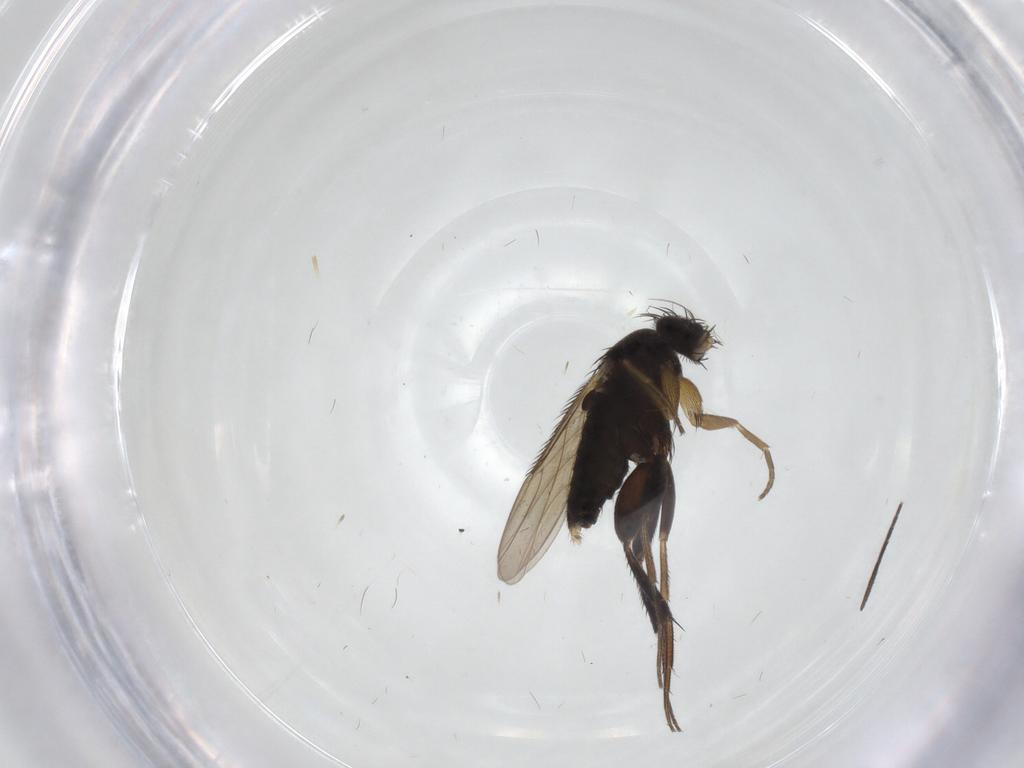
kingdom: Animalia
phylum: Arthropoda
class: Insecta
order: Diptera
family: Phoridae
